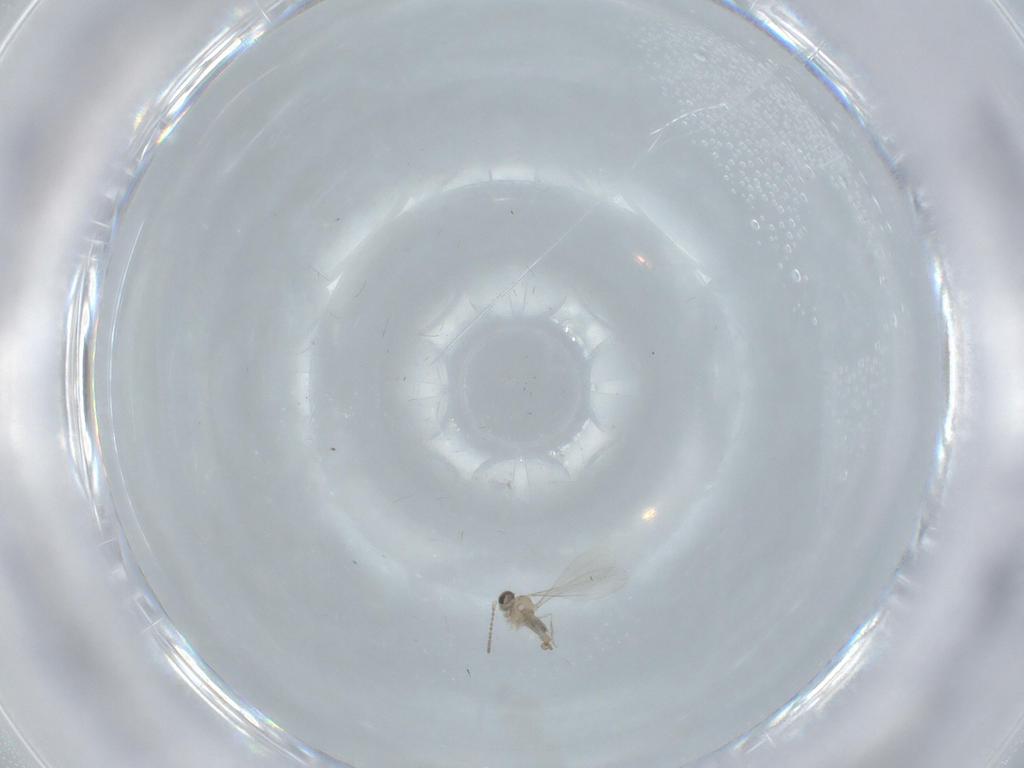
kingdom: Animalia
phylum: Arthropoda
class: Insecta
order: Diptera
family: Cecidomyiidae
